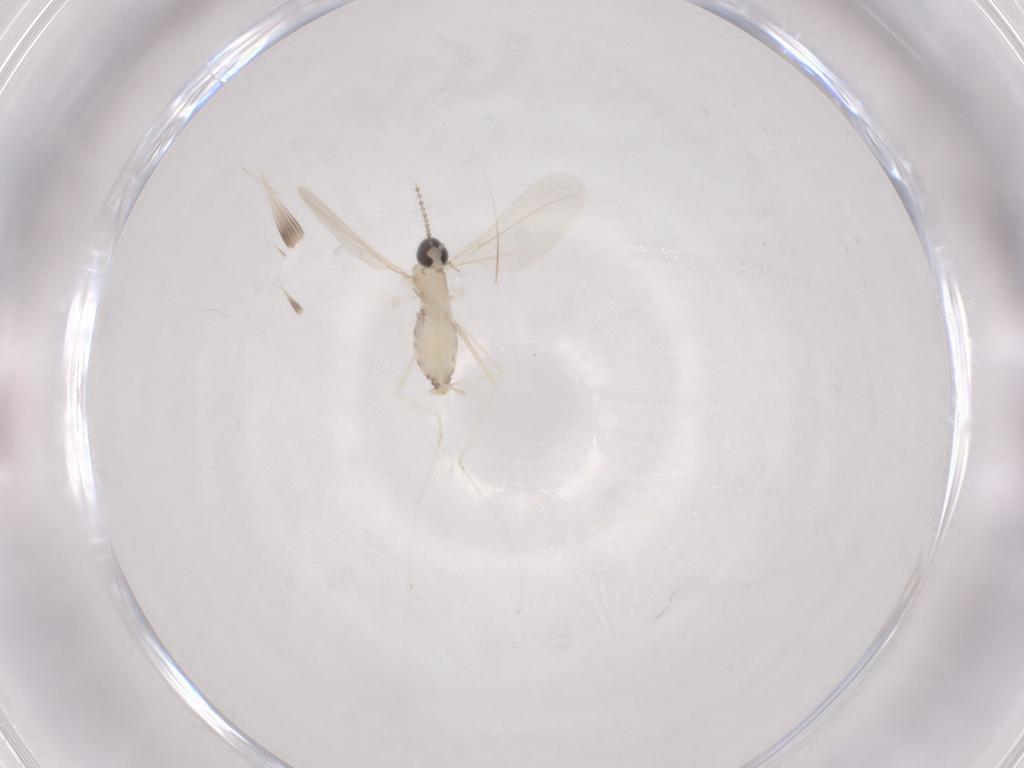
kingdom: Animalia
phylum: Arthropoda
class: Insecta
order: Diptera
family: Cecidomyiidae
